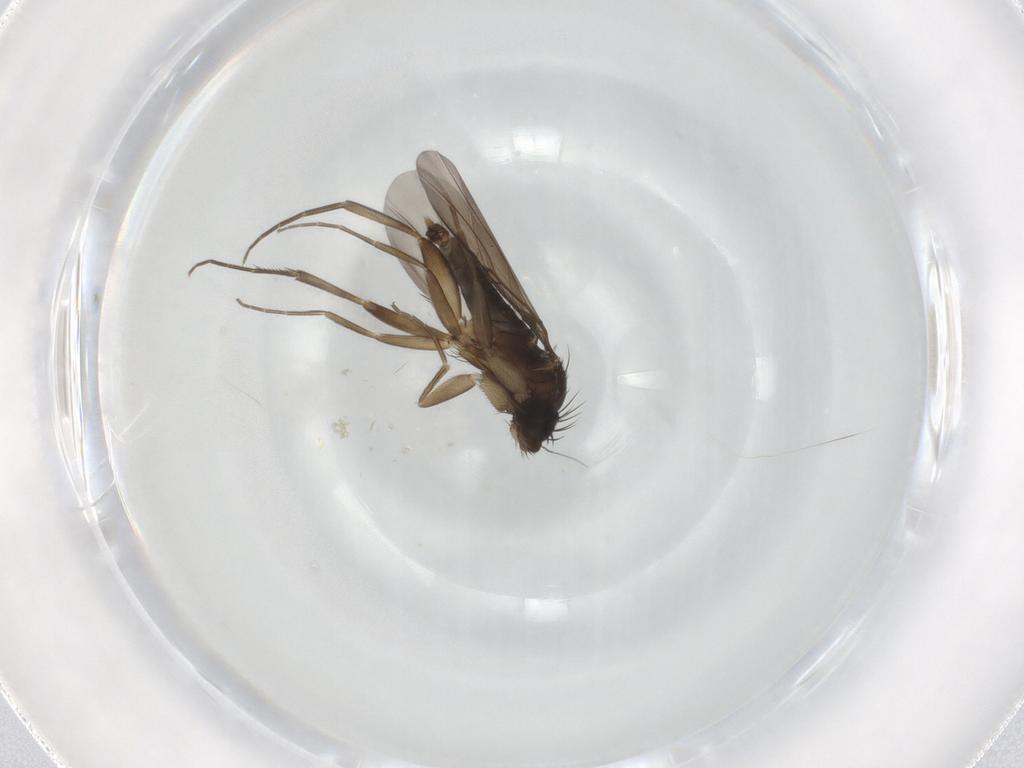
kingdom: Animalia
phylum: Arthropoda
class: Insecta
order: Diptera
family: Phoridae
